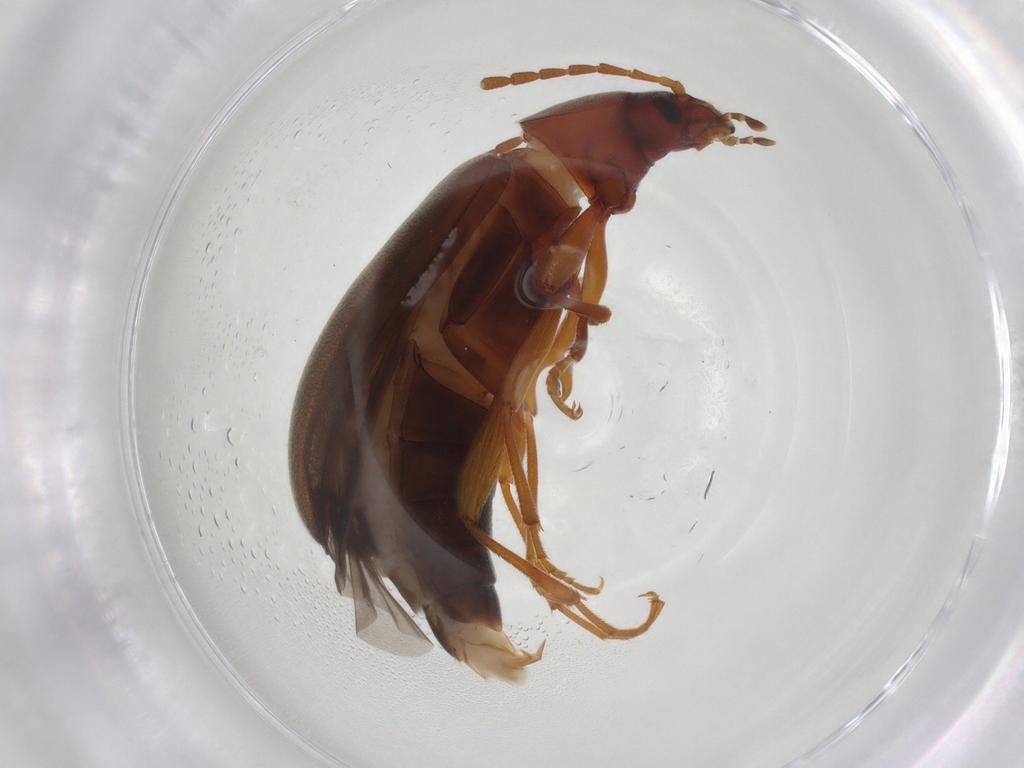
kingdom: Animalia
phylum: Arthropoda
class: Insecta
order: Coleoptera
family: Carabidae
